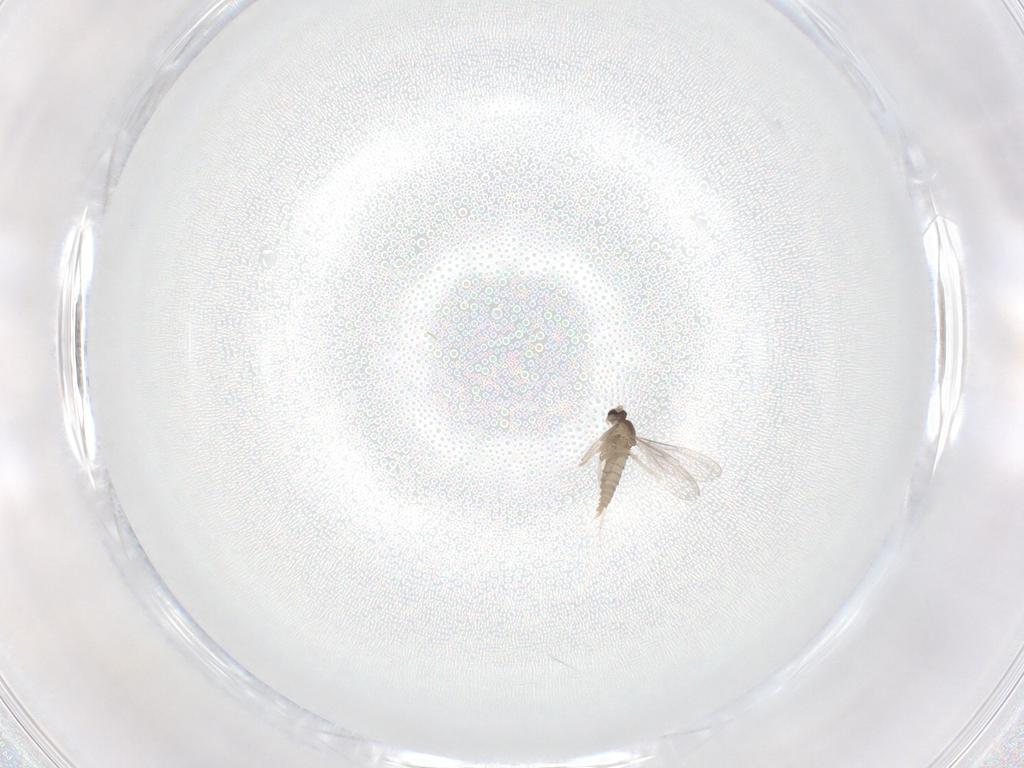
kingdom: Animalia
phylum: Arthropoda
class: Insecta
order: Diptera
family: Cecidomyiidae
